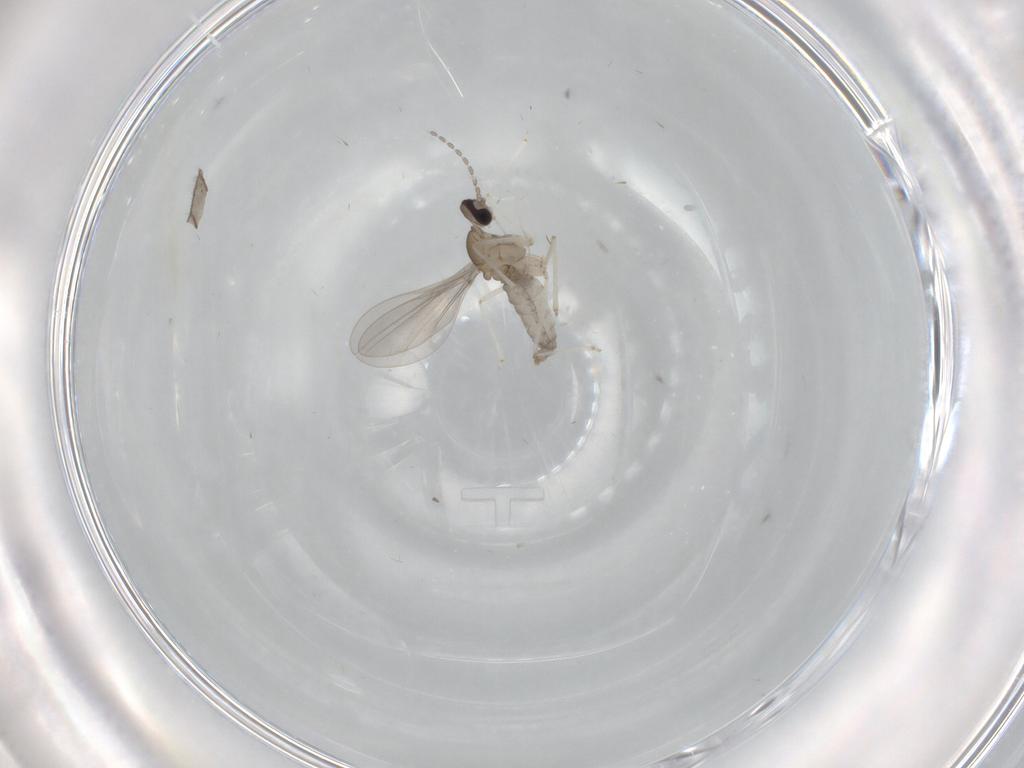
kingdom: Animalia
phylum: Arthropoda
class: Insecta
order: Diptera
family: Cecidomyiidae
